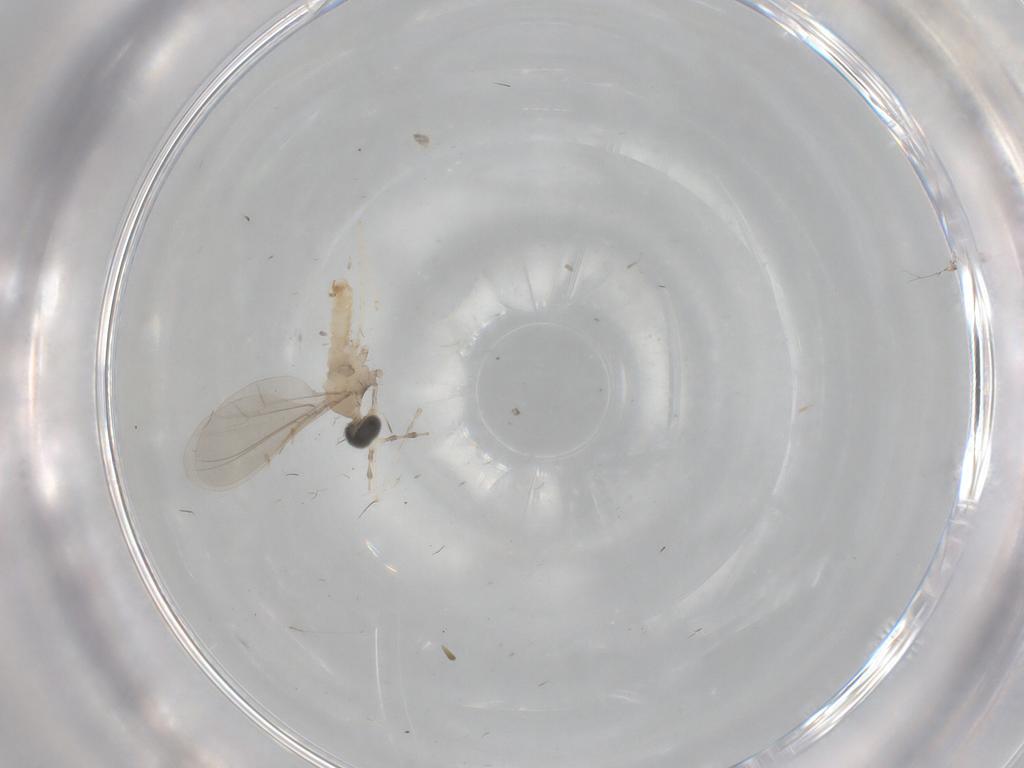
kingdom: Animalia
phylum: Arthropoda
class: Insecta
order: Diptera
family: Cecidomyiidae
